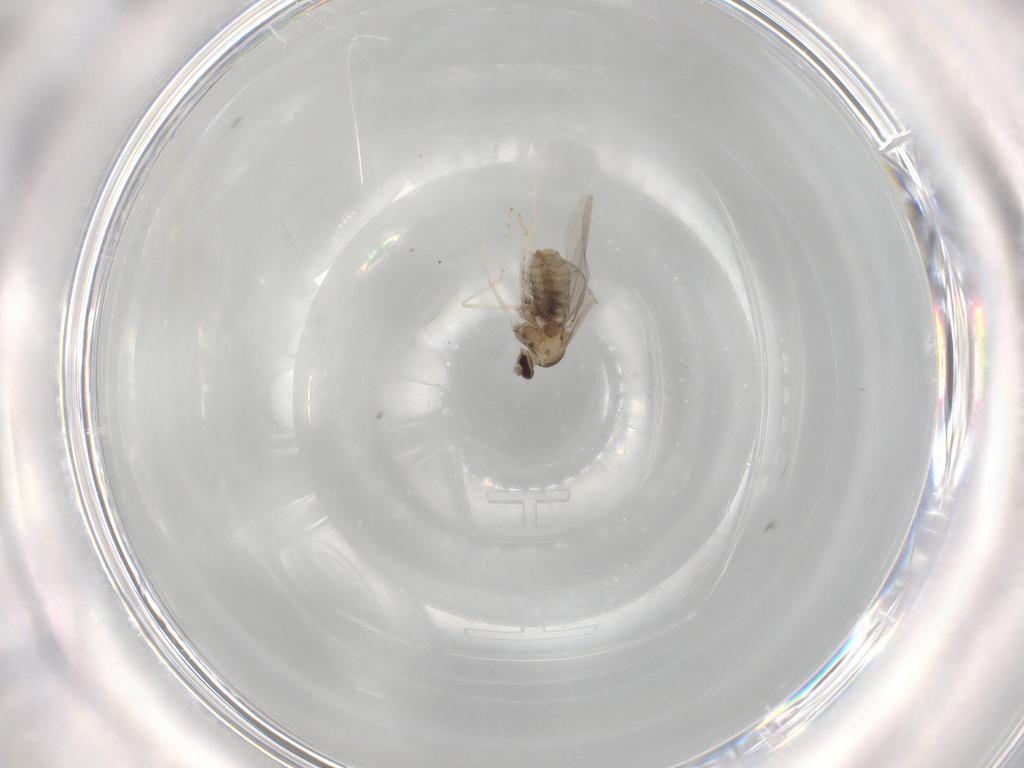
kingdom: Animalia
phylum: Arthropoda
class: Insecta
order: Diptera
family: Cecidomyiidae
